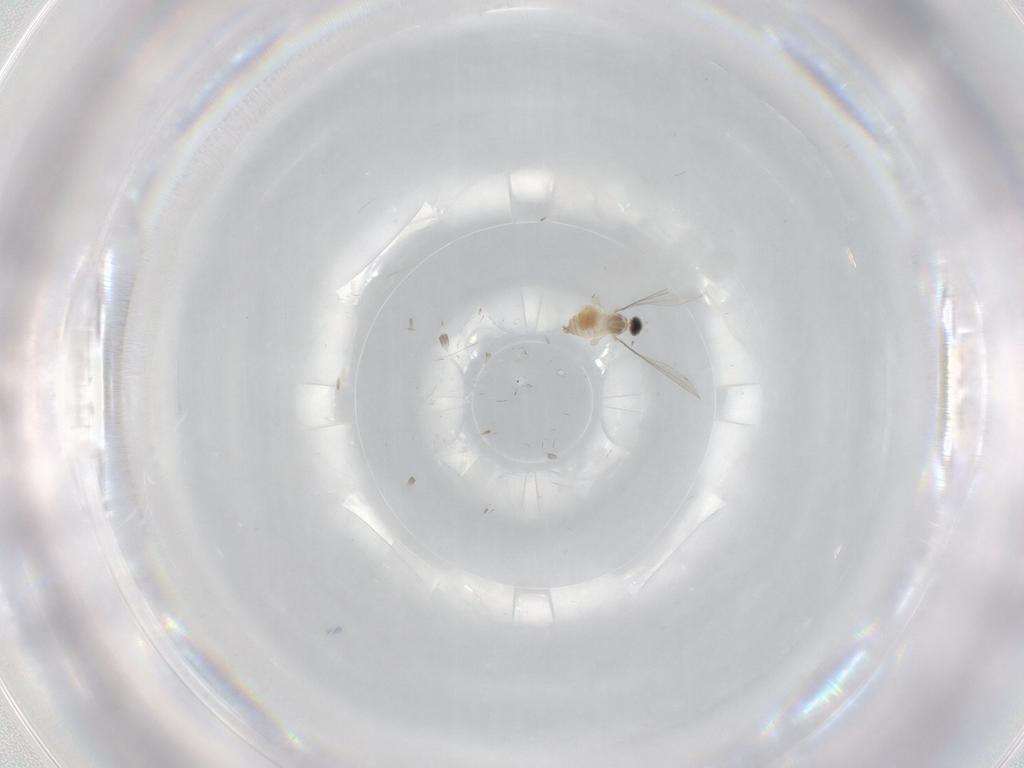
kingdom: Animalia
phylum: Arthropoda
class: Insecta
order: Diptera
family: Cecidomyiidae
